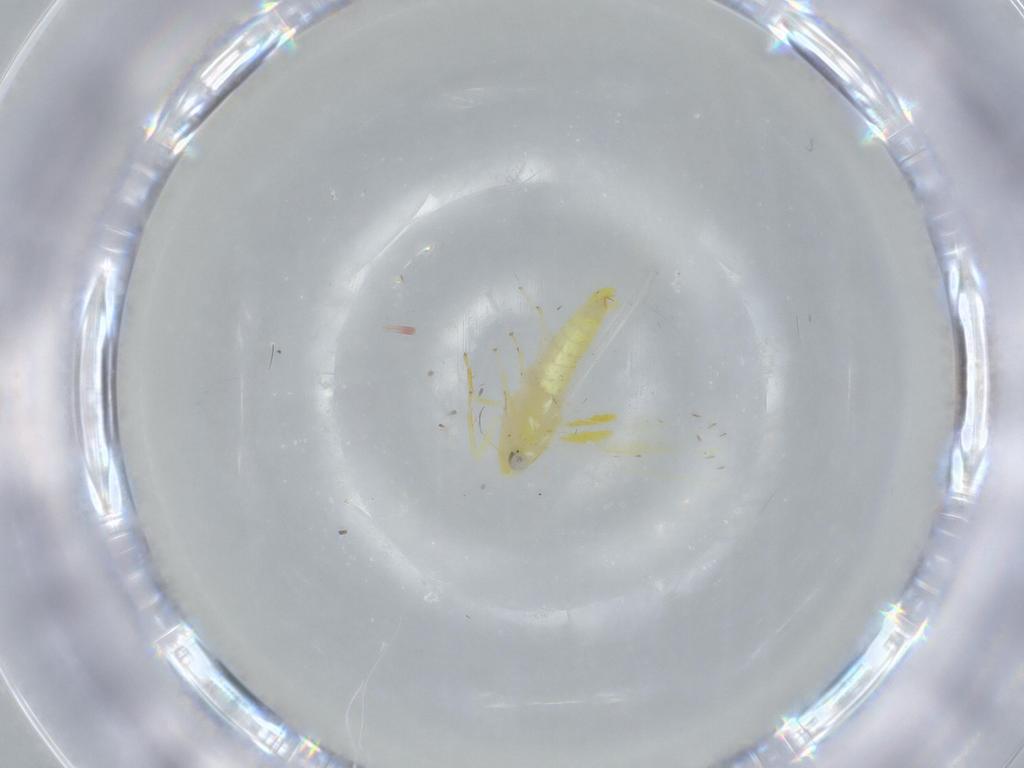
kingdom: Animalia
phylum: Arthropoda
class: Insecta
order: Hemiptera
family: Cicadellidae
